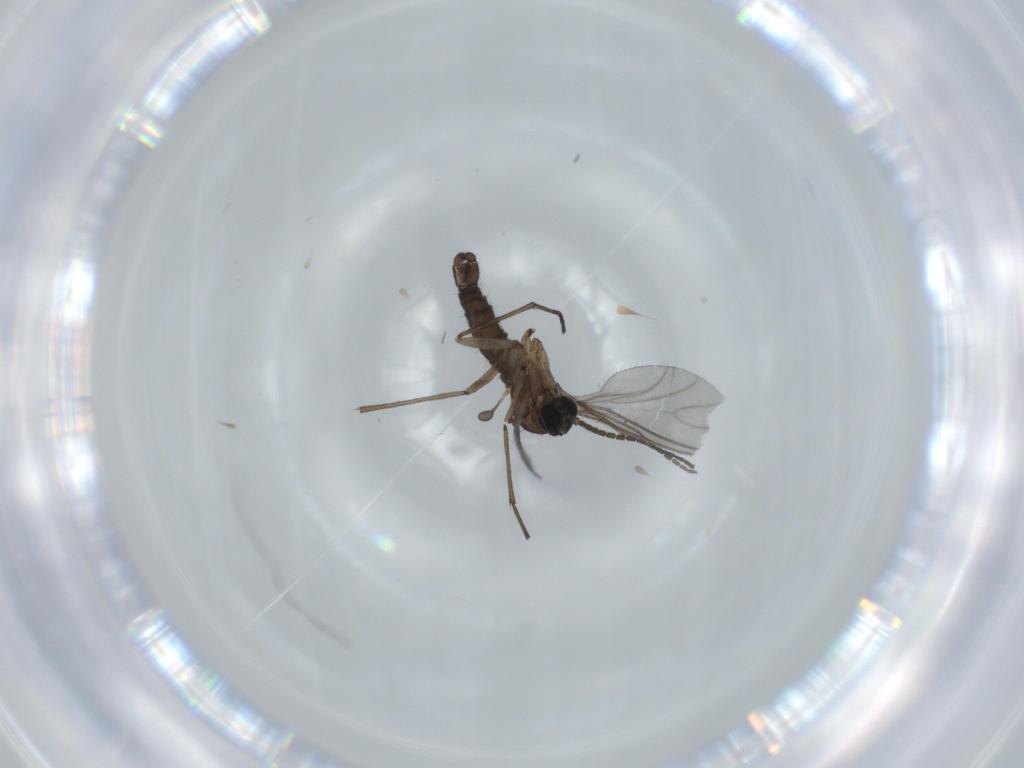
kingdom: Animalia
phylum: Arthropoda
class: Insecta
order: Diptera
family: Sciaridae
